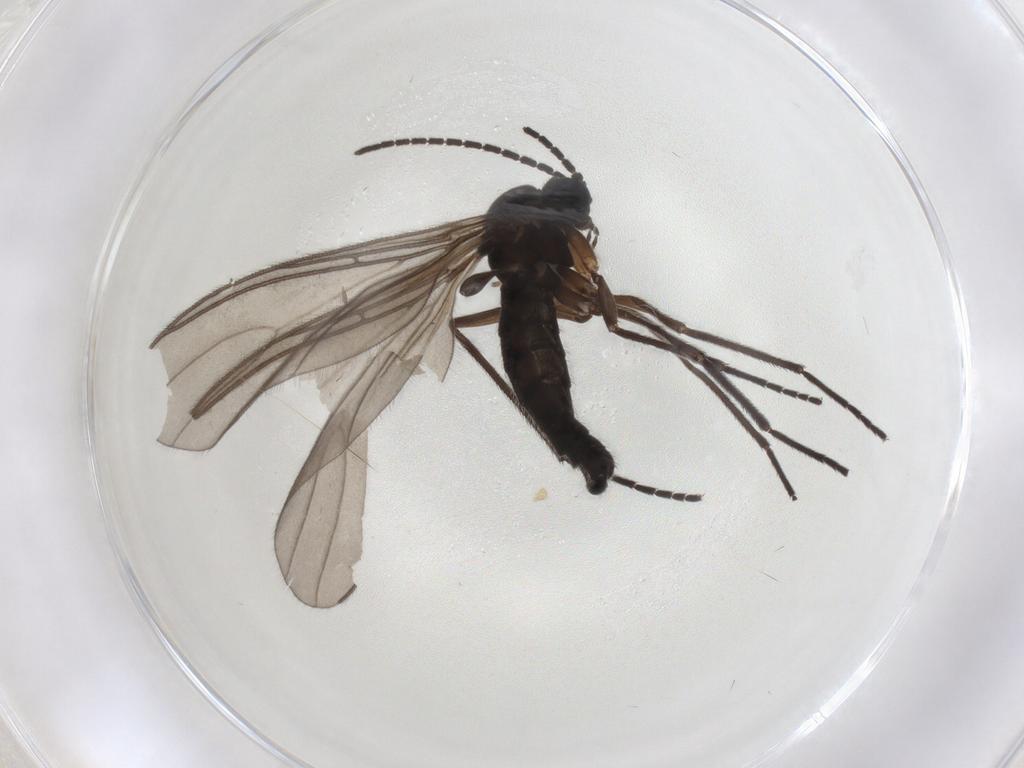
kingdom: Animalia
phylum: Arthropoda
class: Insecta
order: Diptera
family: Sciaridae
